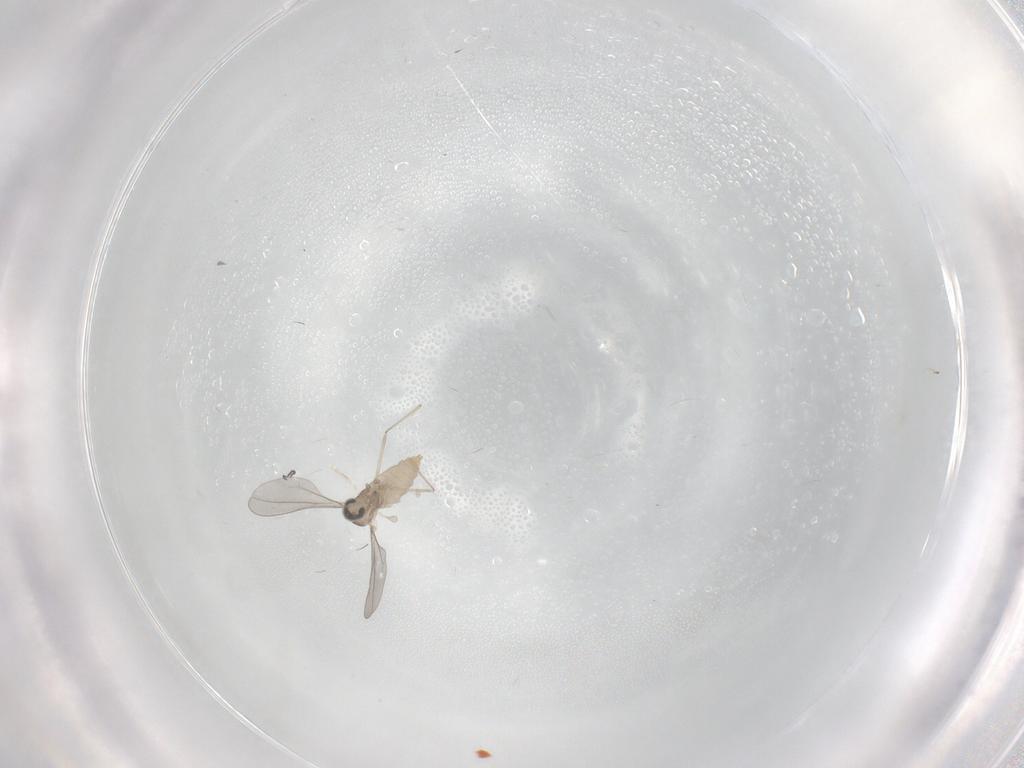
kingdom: Animalia
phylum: Arthropoda
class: Insecta
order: Diptera
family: Cecidomyiidae
